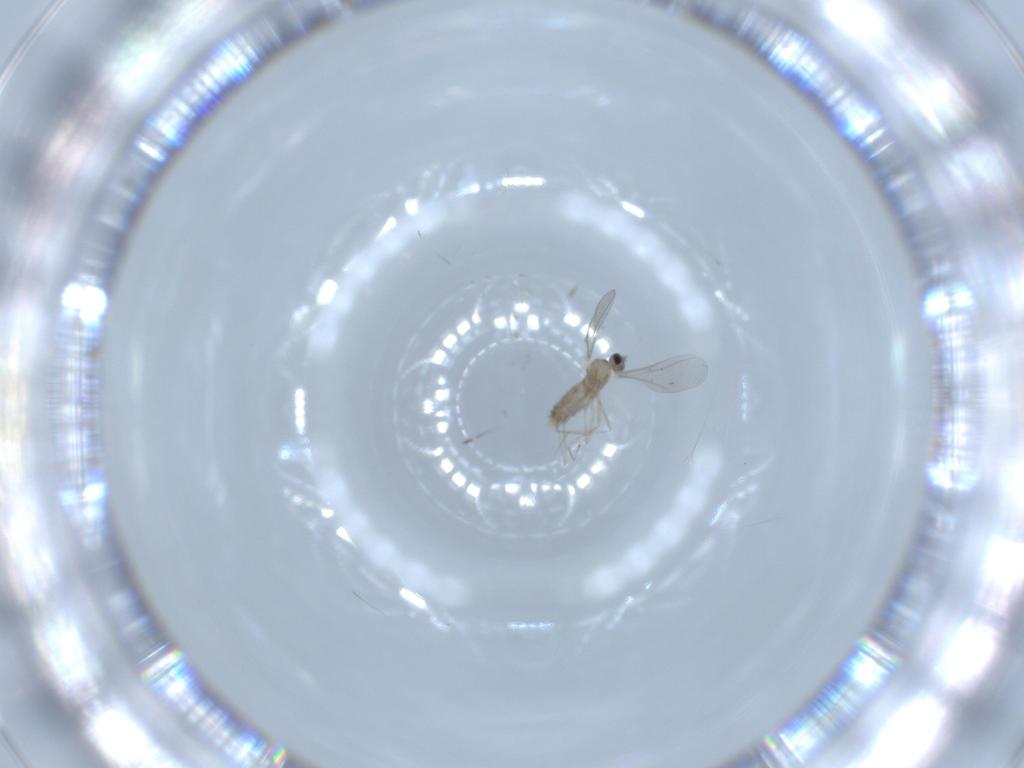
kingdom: Animalia
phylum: Arthropoda
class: Insecta
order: Diptera
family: Cecidomyiidae
